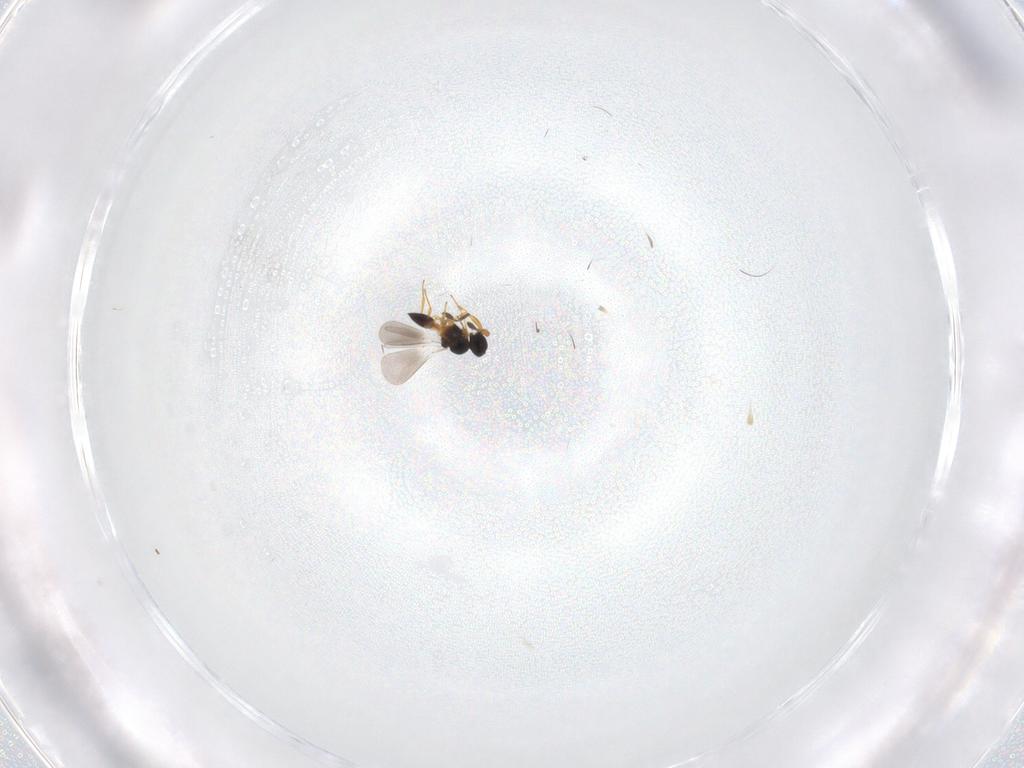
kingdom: Animalia
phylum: Arthropoda
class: Insecta
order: Hymenoptera
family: Platygastridae
